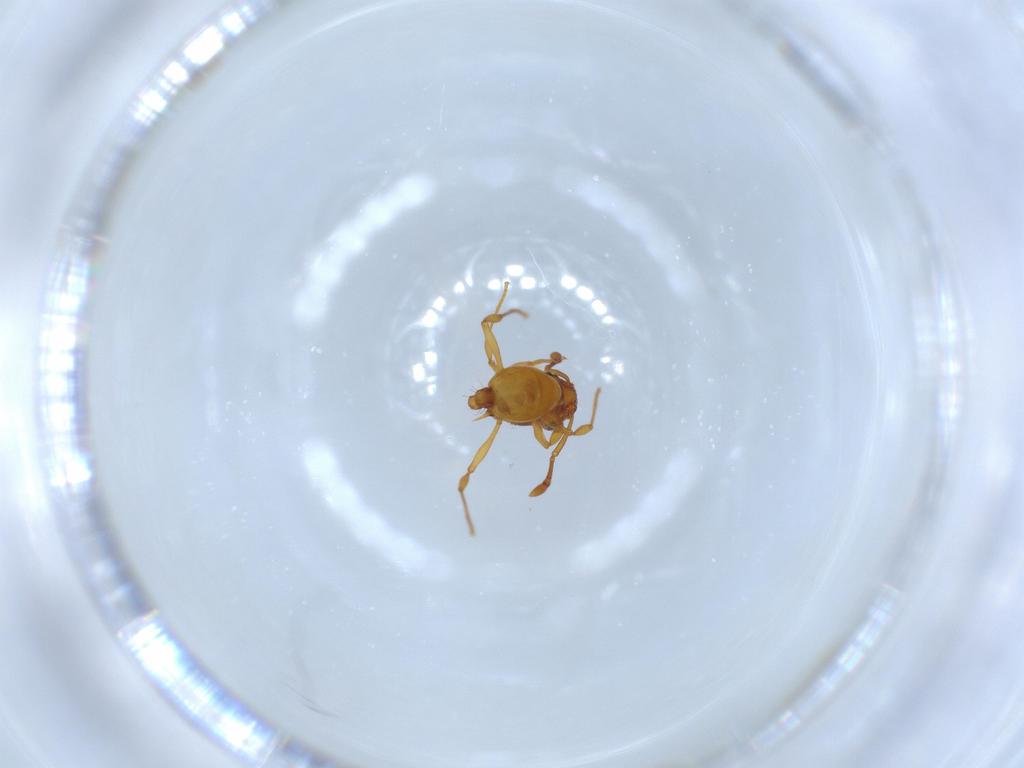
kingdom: Animalia
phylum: Arthropoda
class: Insecta
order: Hymenoptera
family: Formicidae
